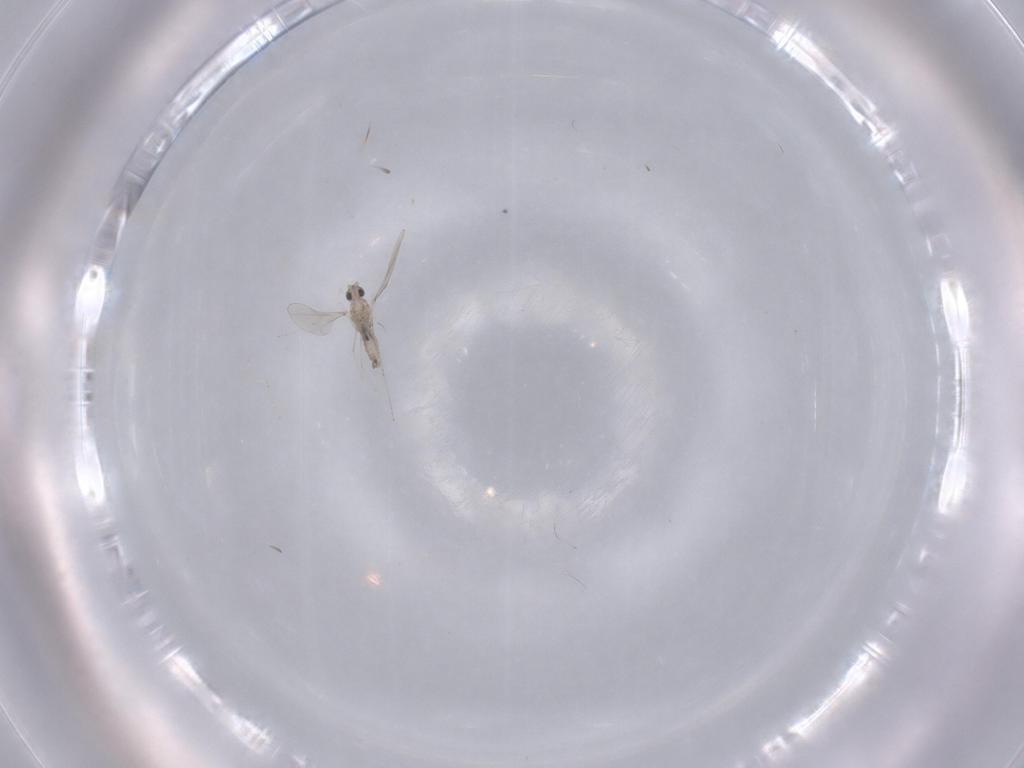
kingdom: Animalia
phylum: Arthropoda
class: Insecta
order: Diptera
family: Cecidomyiidae
